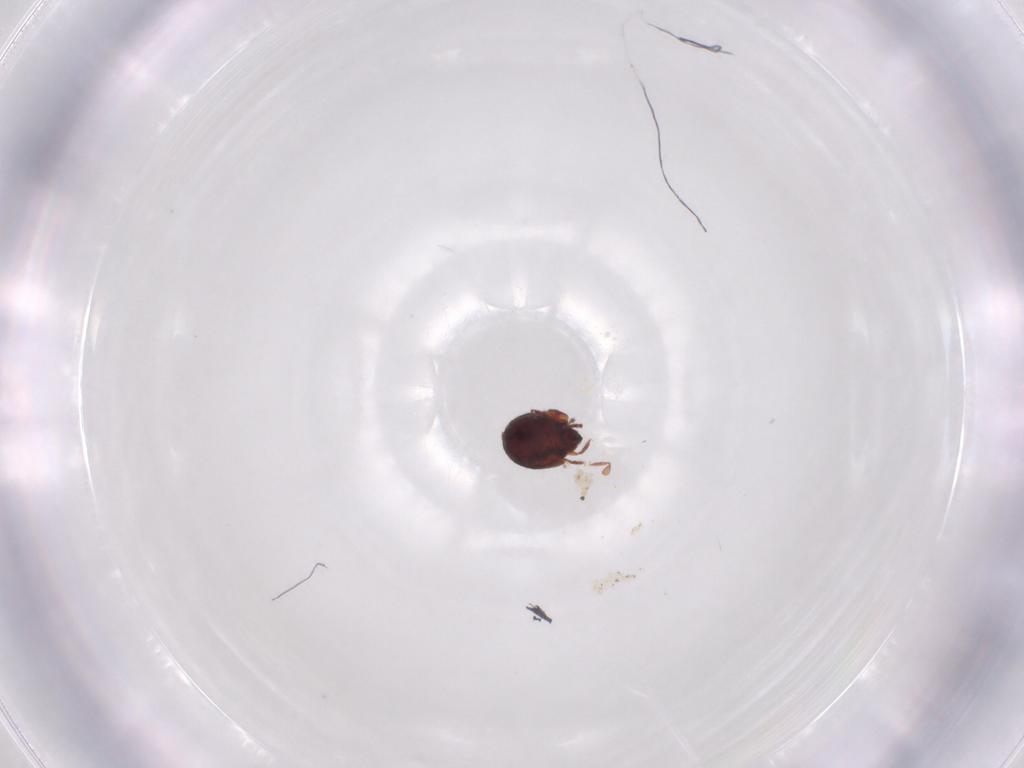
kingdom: Animalia
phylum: Arthropoda
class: Arachnida
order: Sarcoptiformes
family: Humerobatidae
